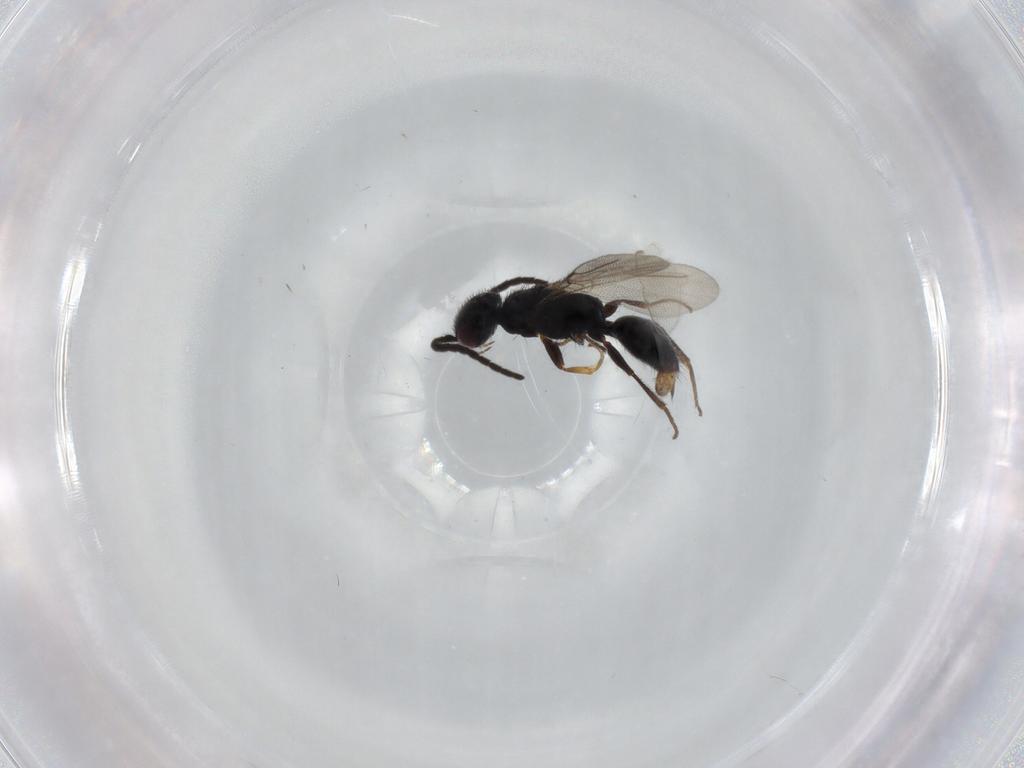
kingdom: Animalia
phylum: Arthropoda
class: Insecta
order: Hymenoptera
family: Bethylidae
